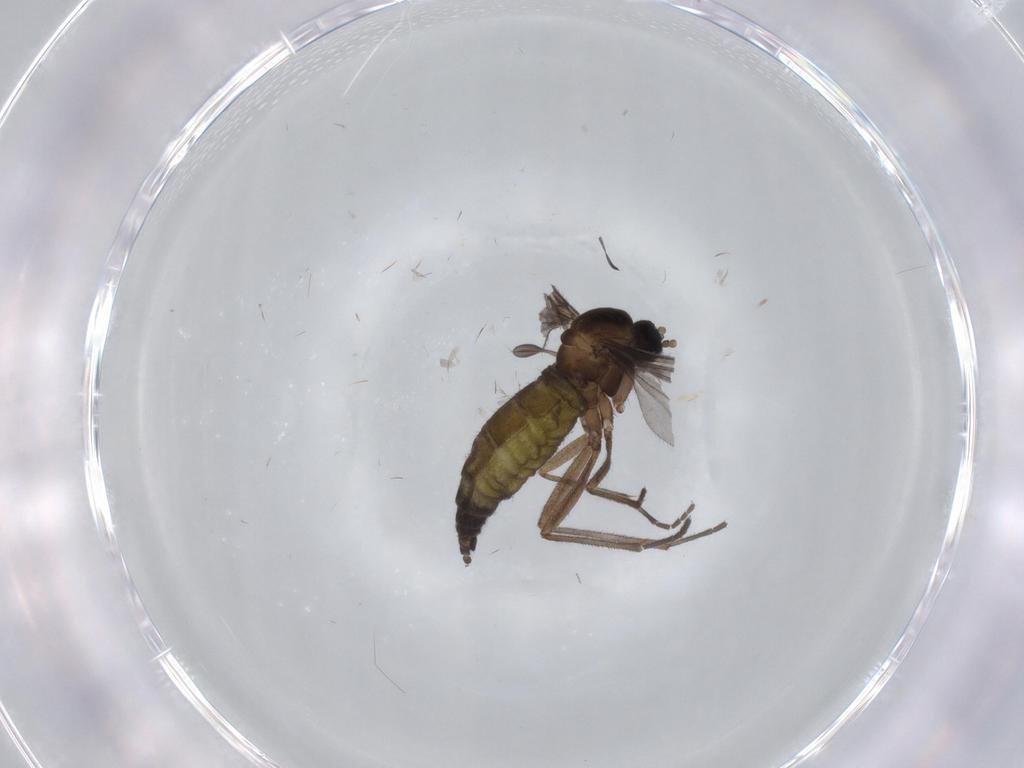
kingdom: Animalia
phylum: Arthropoda
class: Insecta
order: Diptera
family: Sciaridae
